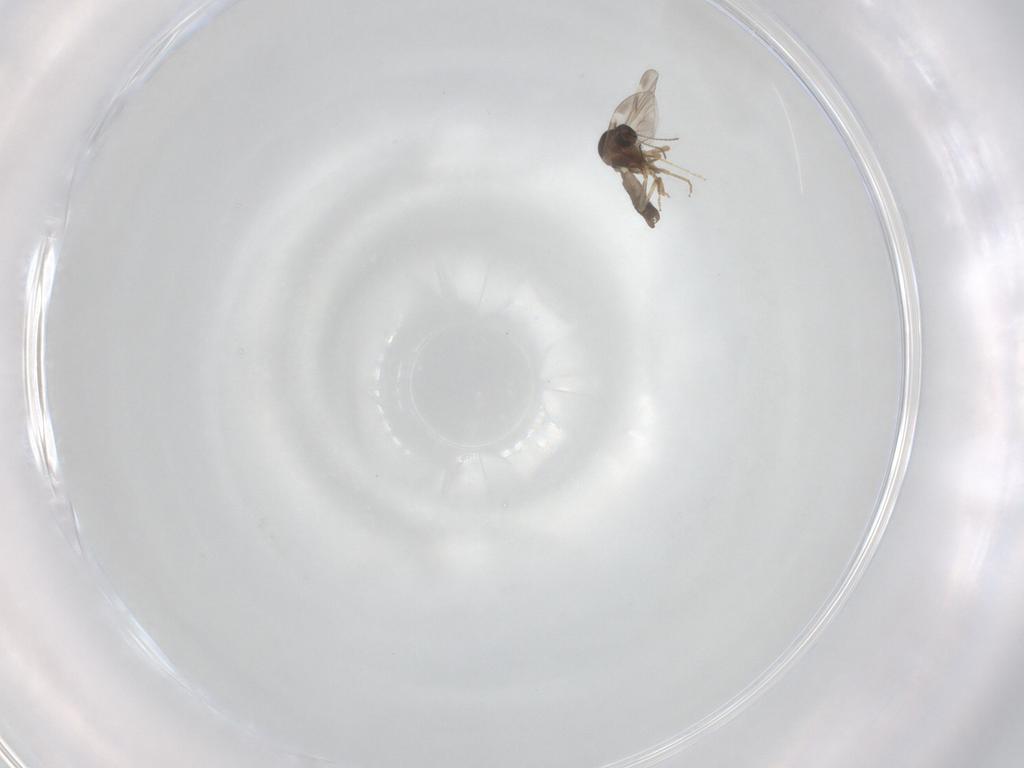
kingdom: Animalia
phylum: Arthropoda
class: Insecta
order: Diptera
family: Ceratopogonidae
